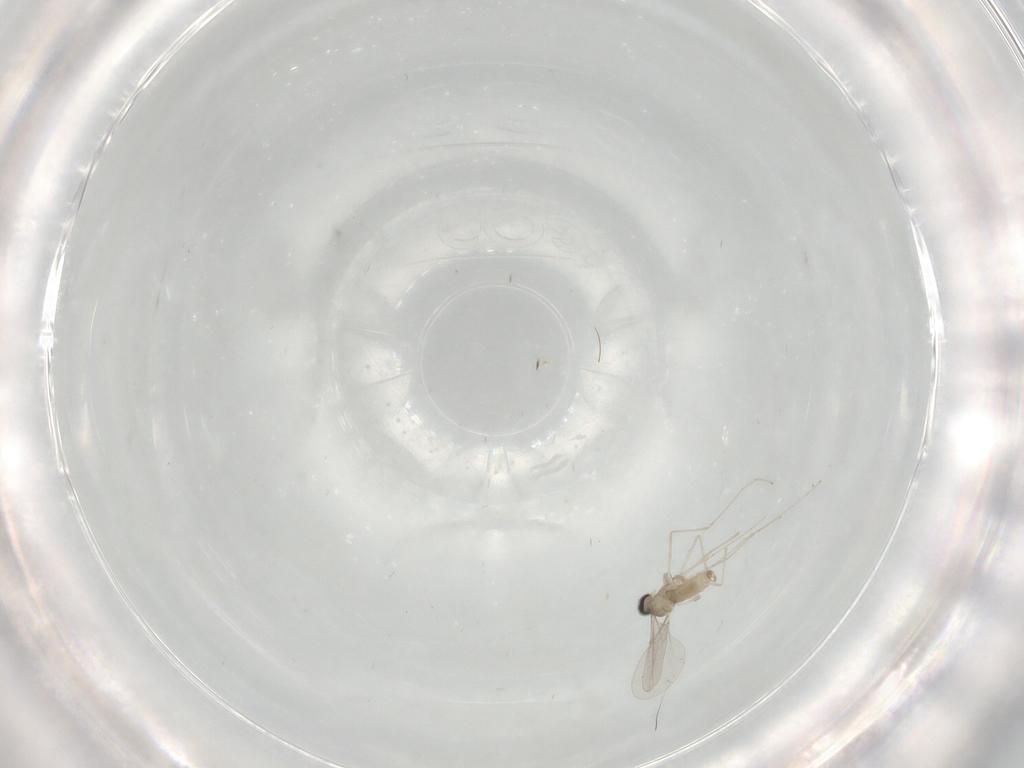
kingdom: Animalia
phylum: Arthropoda
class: Insecta
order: Diptera
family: Cecidomyiidae
